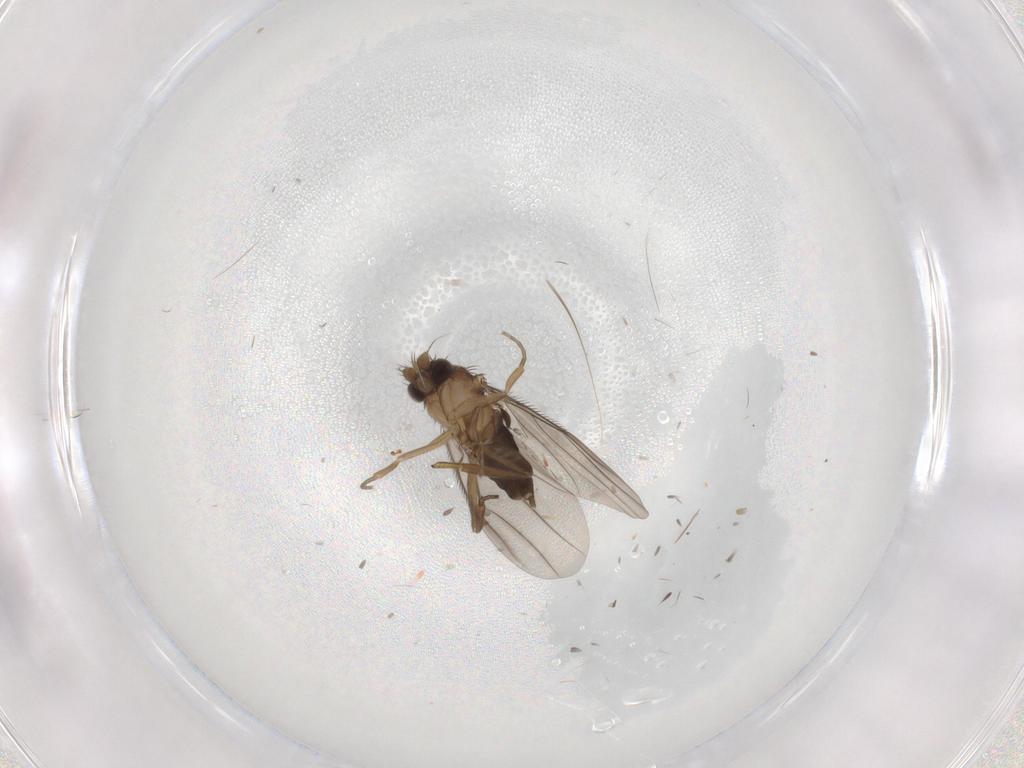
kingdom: Animalia
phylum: Arthropoda
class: Insecta
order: Diptera
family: Phoridae
